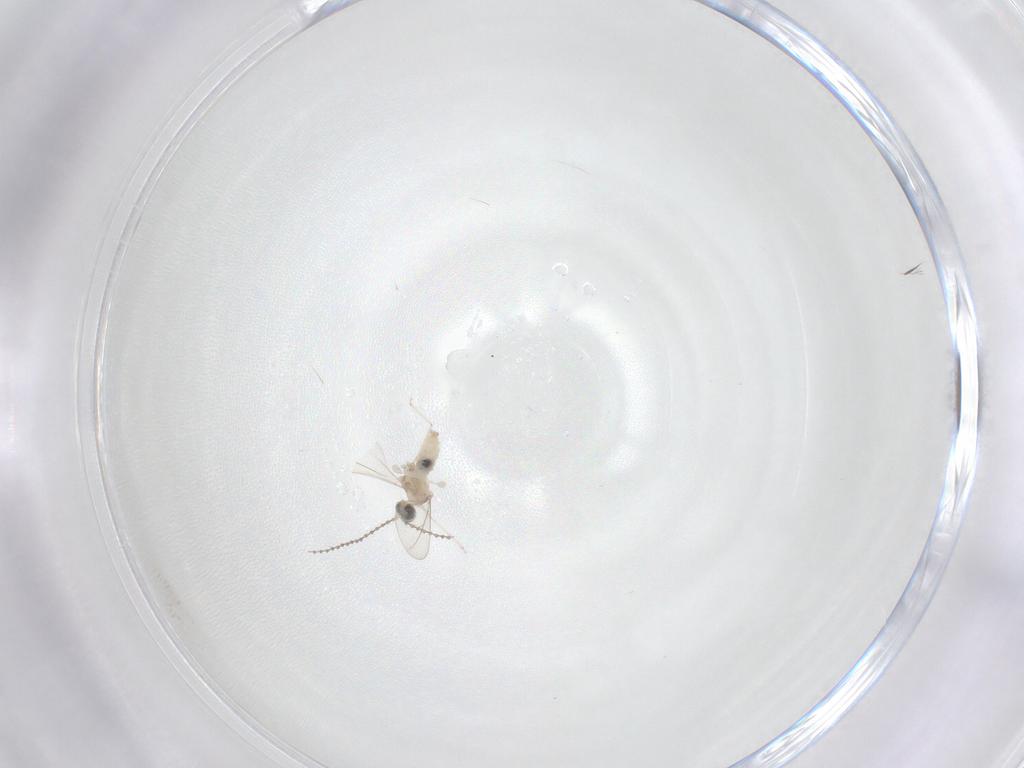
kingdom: Animalia
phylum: Arthropoda
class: Insecta
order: Diptera
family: Cecidomyiidae
